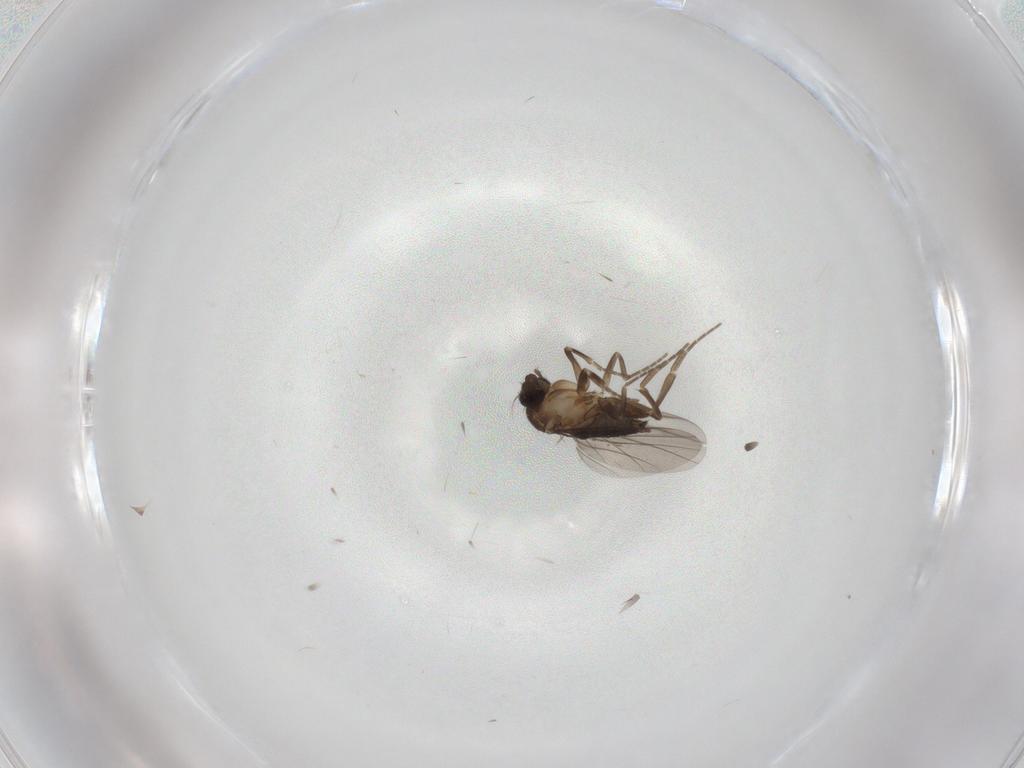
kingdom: Animalia
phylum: Arthropoda
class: Insecta
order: Diptera
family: Phoridae
